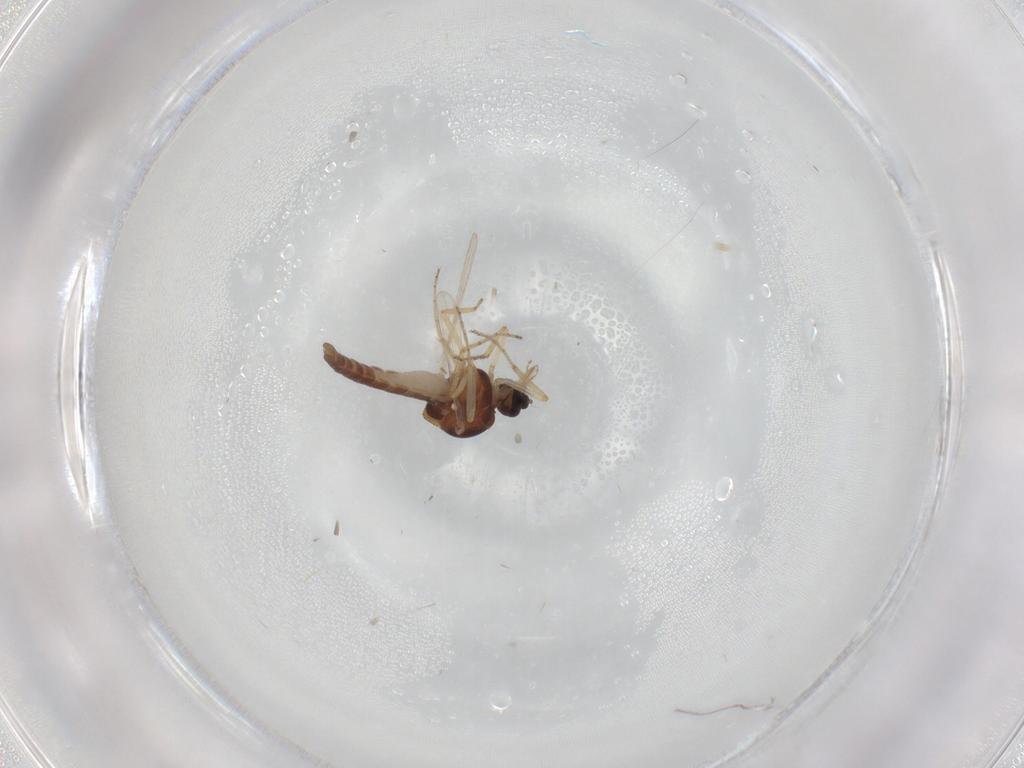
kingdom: Animalia
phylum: Arthropoda
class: Insecta
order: Diptera
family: Ceratopogonidae
